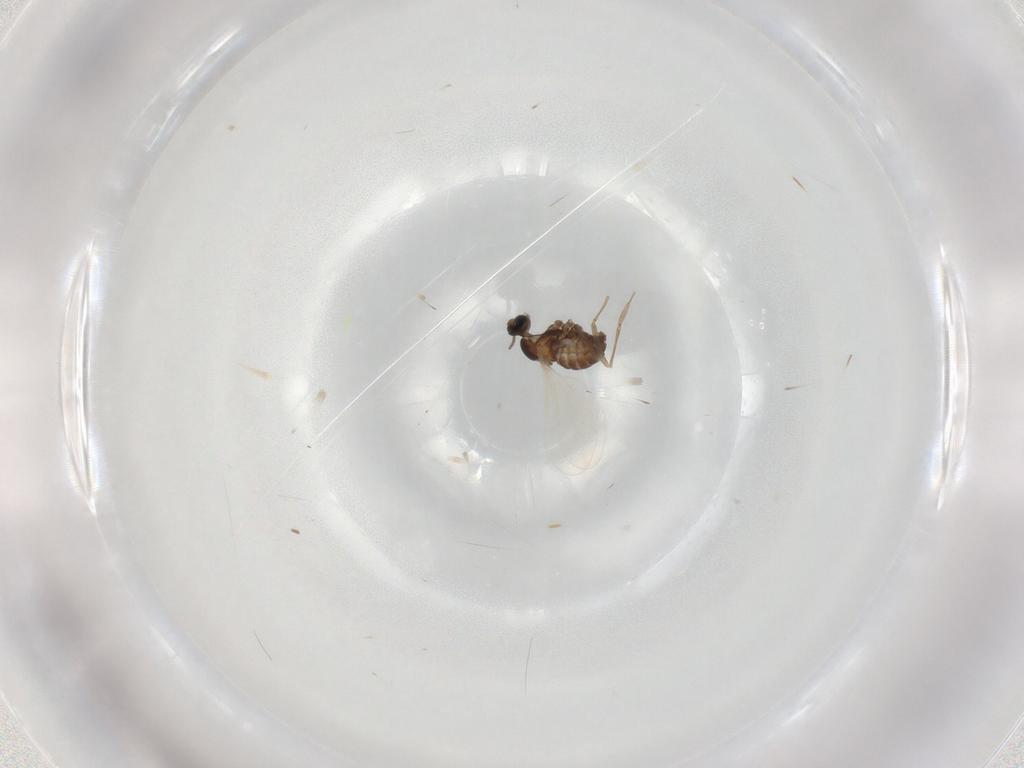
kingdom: Animalia
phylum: Arthropoda
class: Insecta
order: Diptera
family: Cecidomyiidae
